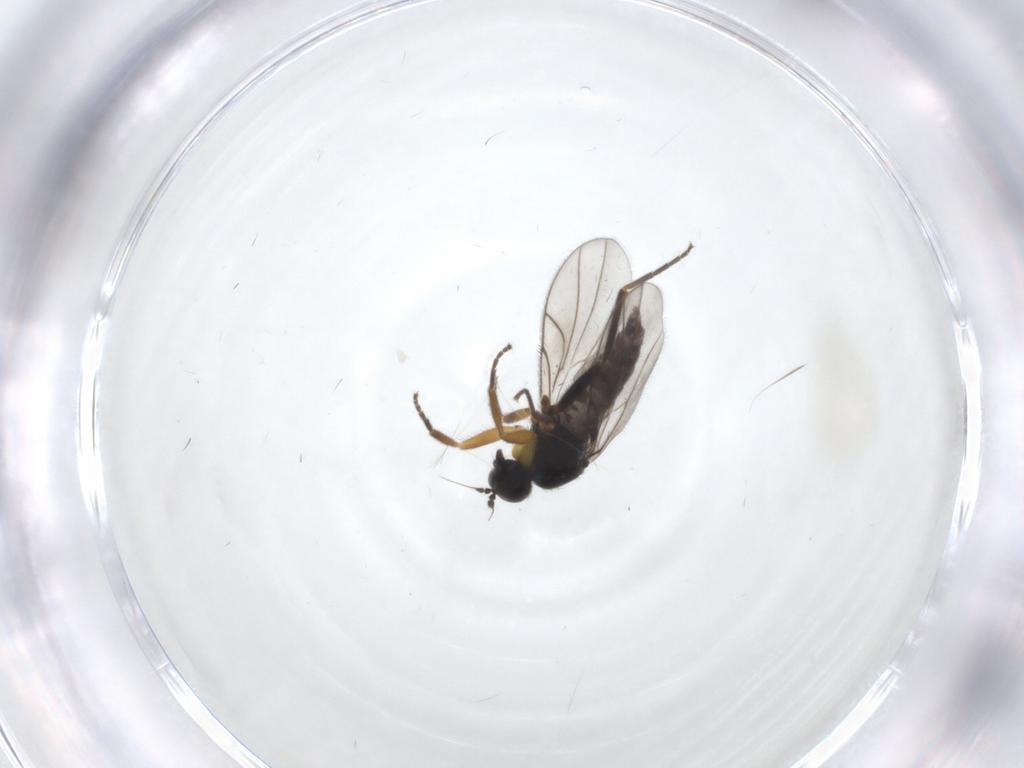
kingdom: Animalia
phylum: Arthropoda
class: Insecta
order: Diptera
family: Hybotidae
